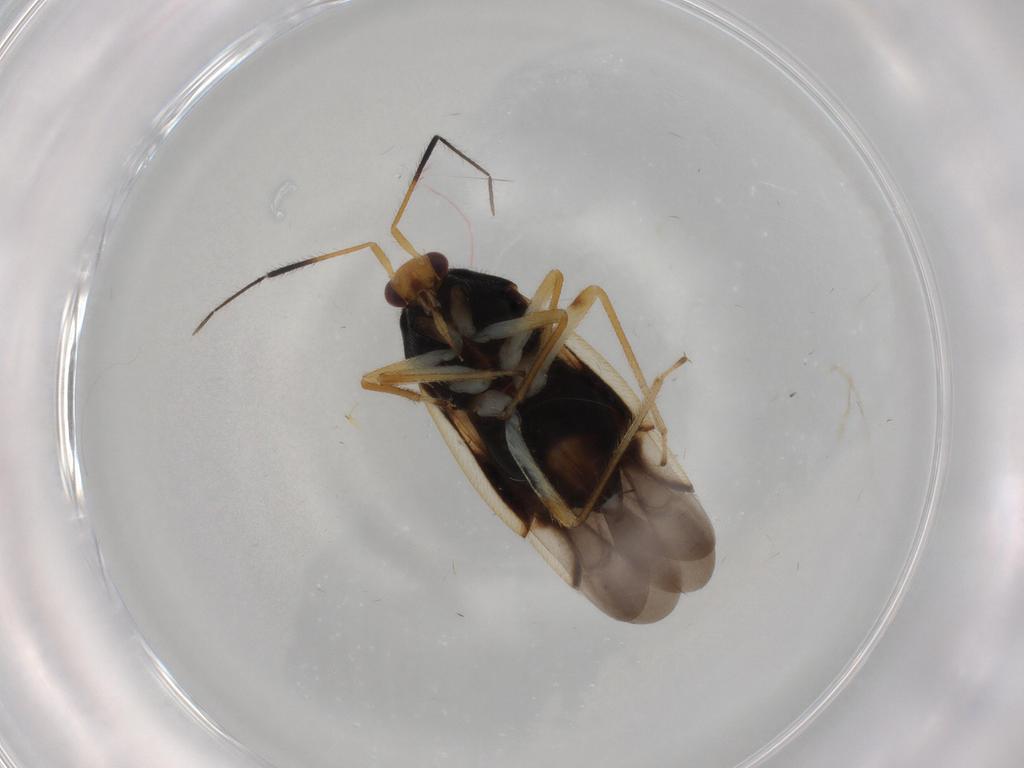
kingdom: Animalia
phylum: Arthropoda
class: Insecta
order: Hemiptera
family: Miridae
